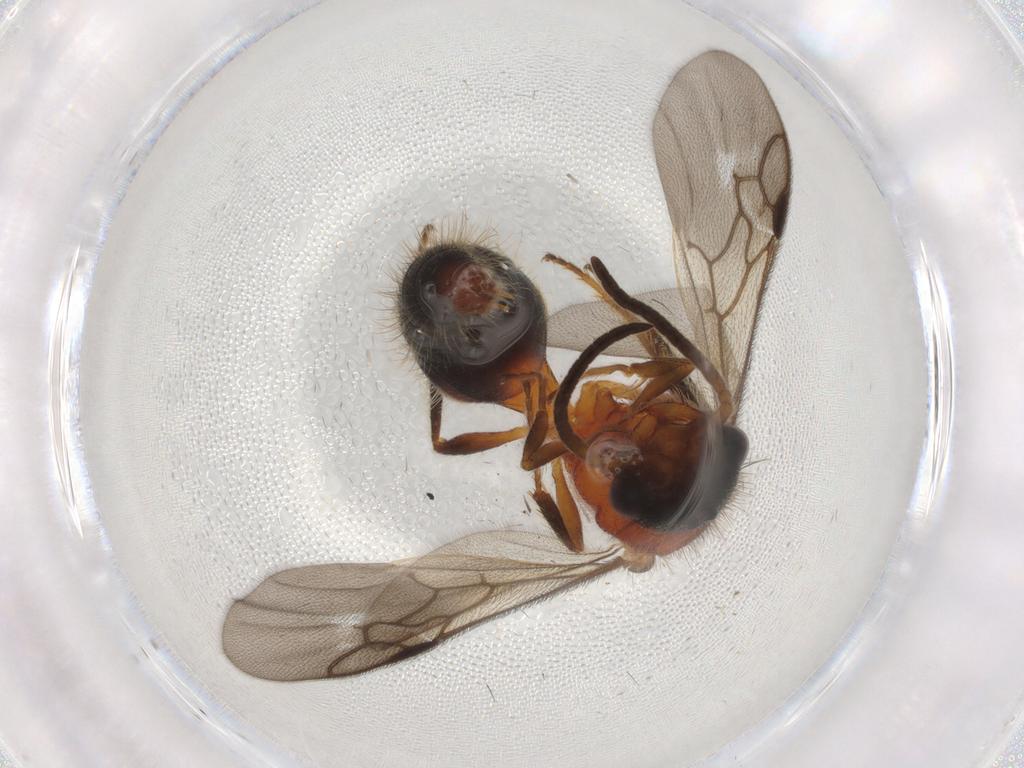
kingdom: Animalia
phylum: Arthropoda
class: Insecta
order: Hymenoptera
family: Mutillidae
